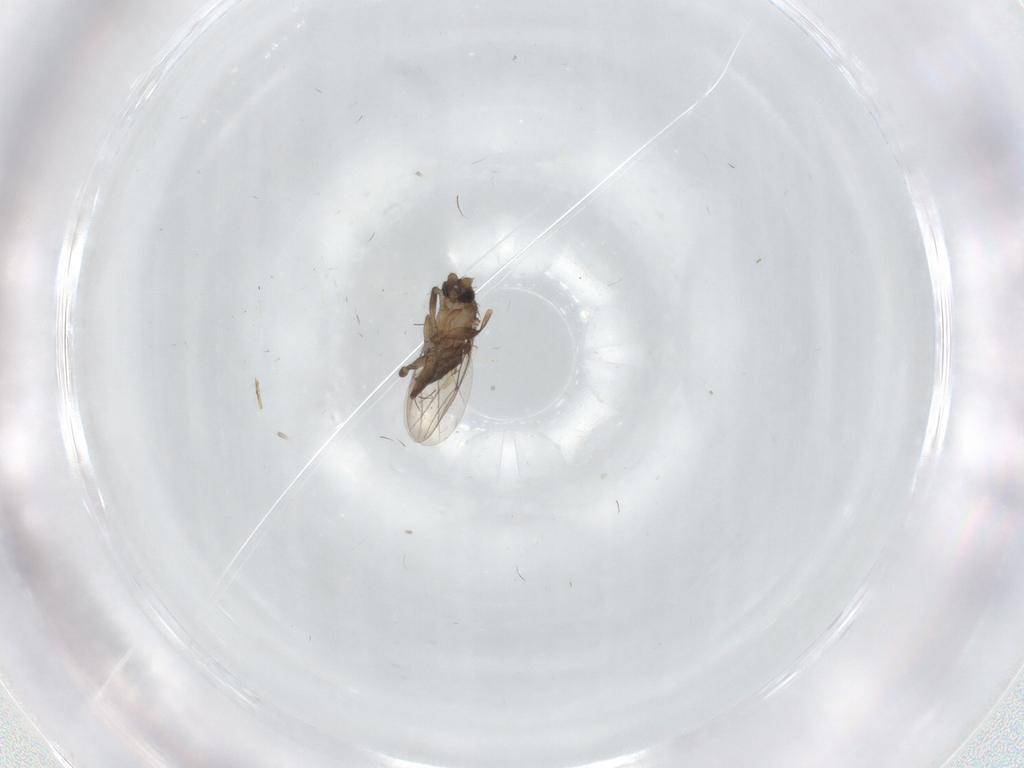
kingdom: Animalia
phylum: Arthropoda
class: Insecta
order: Diptera
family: Phoridae
